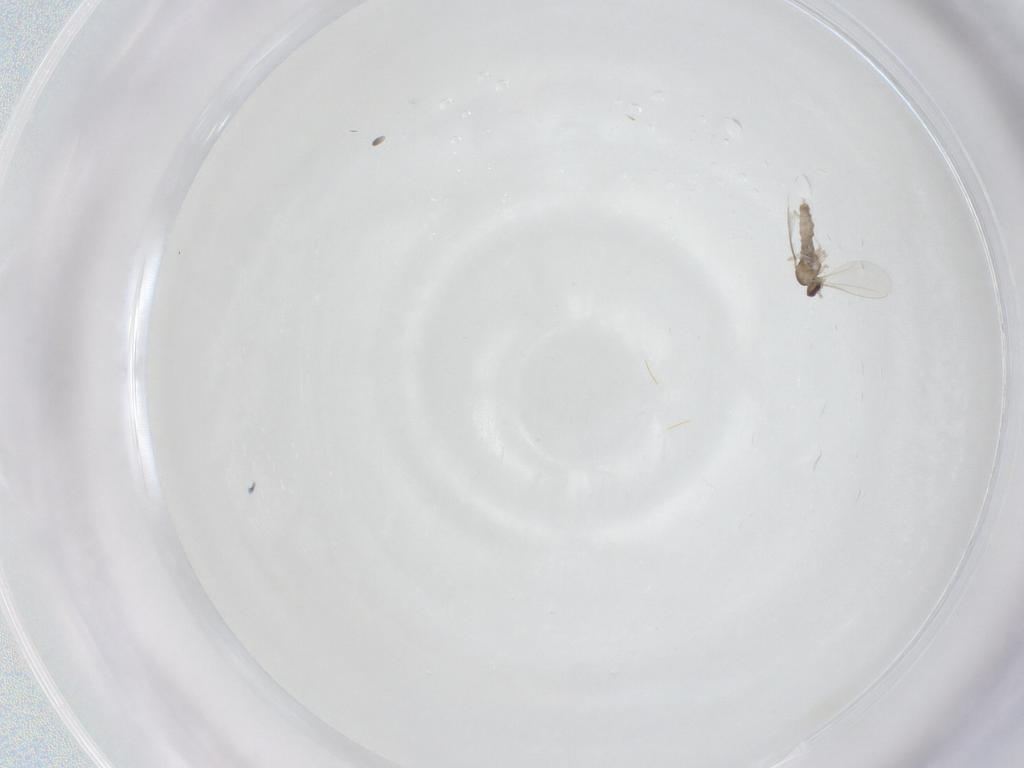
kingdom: Animalia
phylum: Arthropoda
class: Insecta
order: Diptera
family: Cecidomyiidae
